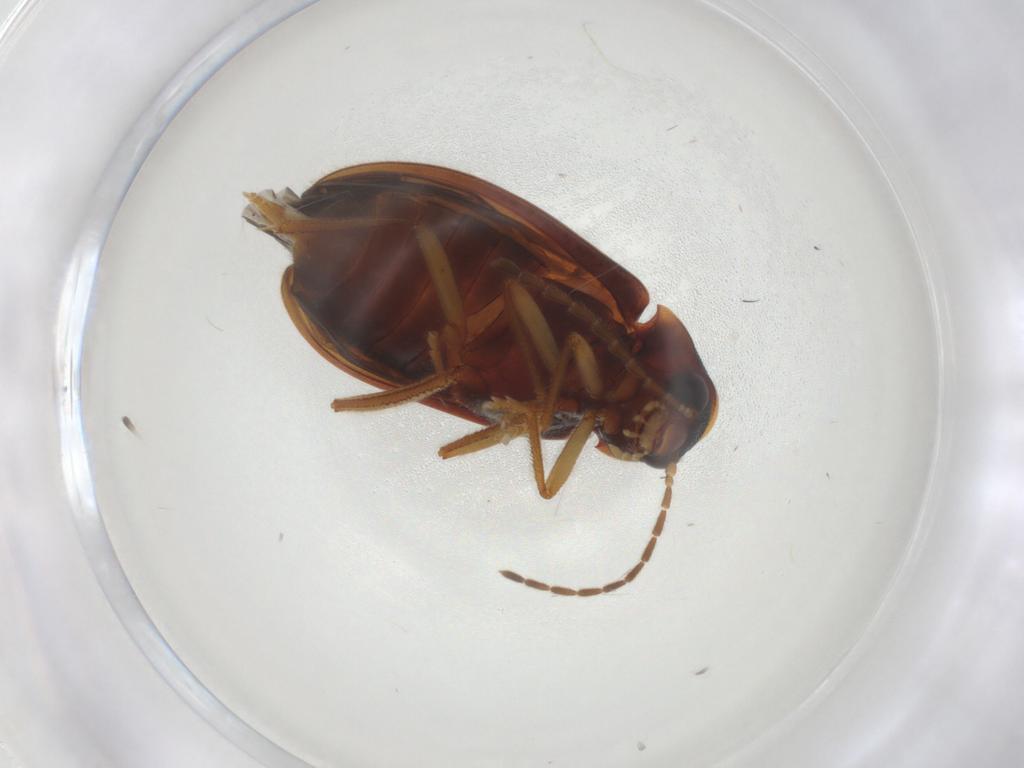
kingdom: Animalia
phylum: Arthropoda
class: Insecta
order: Coleoptera
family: Ptilodactylidae
